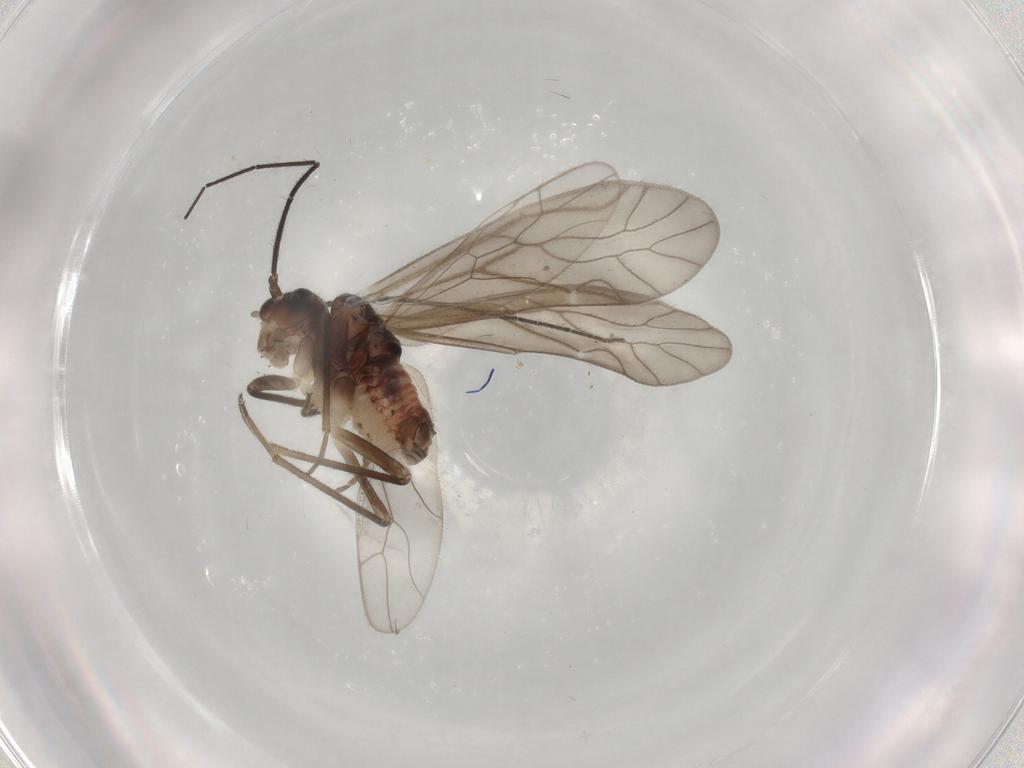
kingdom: Animalia
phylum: Arthropoda
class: Insecta
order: Psocodea
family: Caeciliusidae
